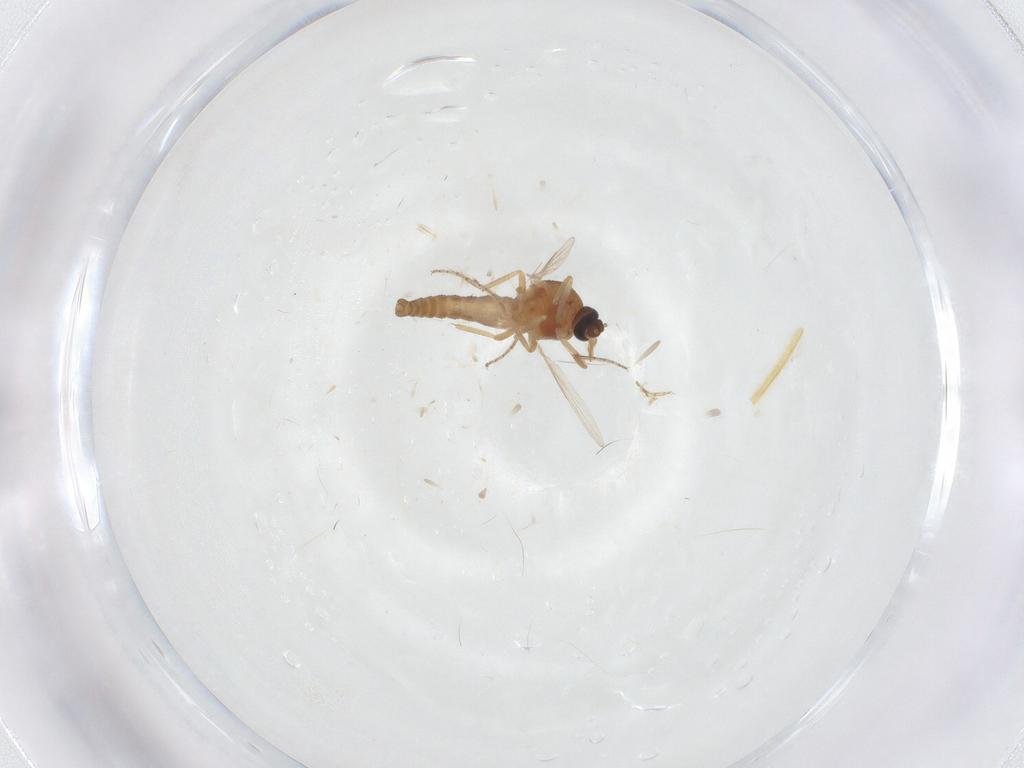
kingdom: Animalia
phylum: Arthropoda
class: Insecta
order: Diptera
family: Ceratopogonidae
